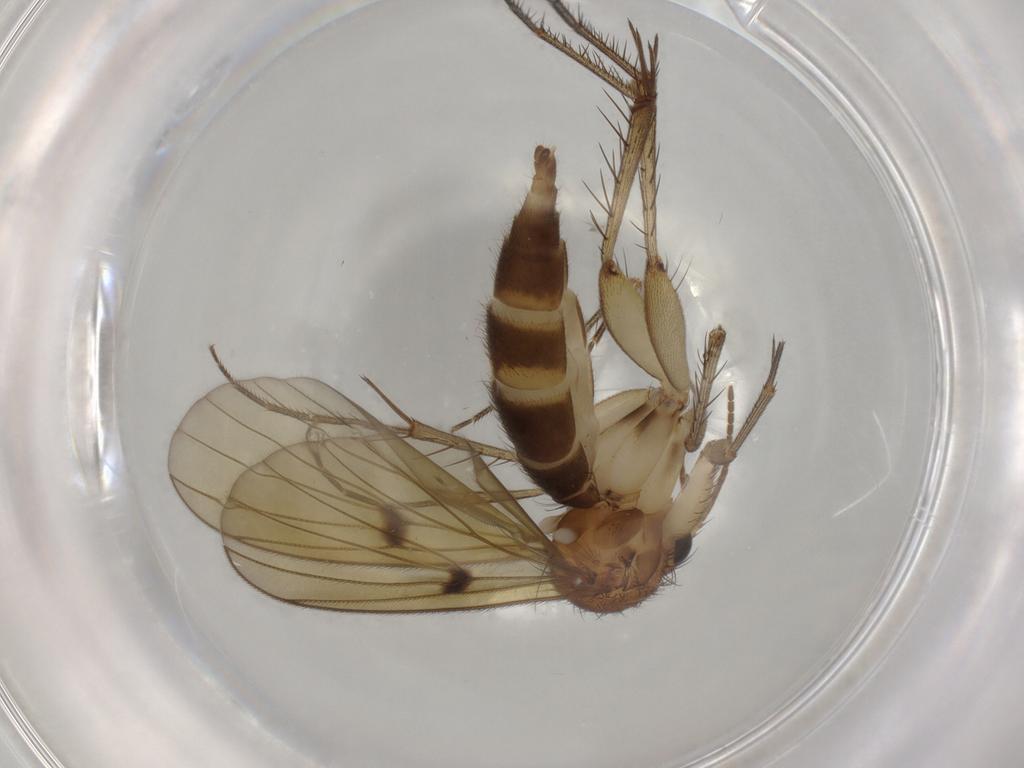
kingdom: Animalia
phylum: Arthropoda
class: Insecta
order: Diptera
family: Mycetophilidae
